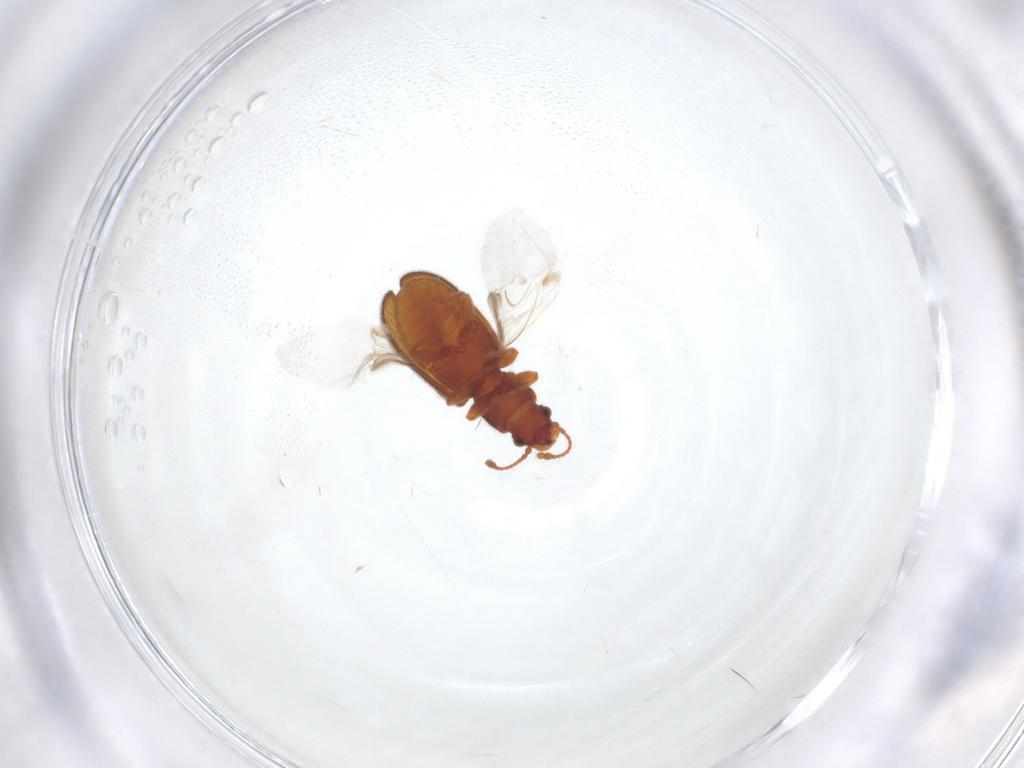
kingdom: Animalia
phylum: Arthropoda
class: Insecta
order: Coleoptera
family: Mycetophagidae
